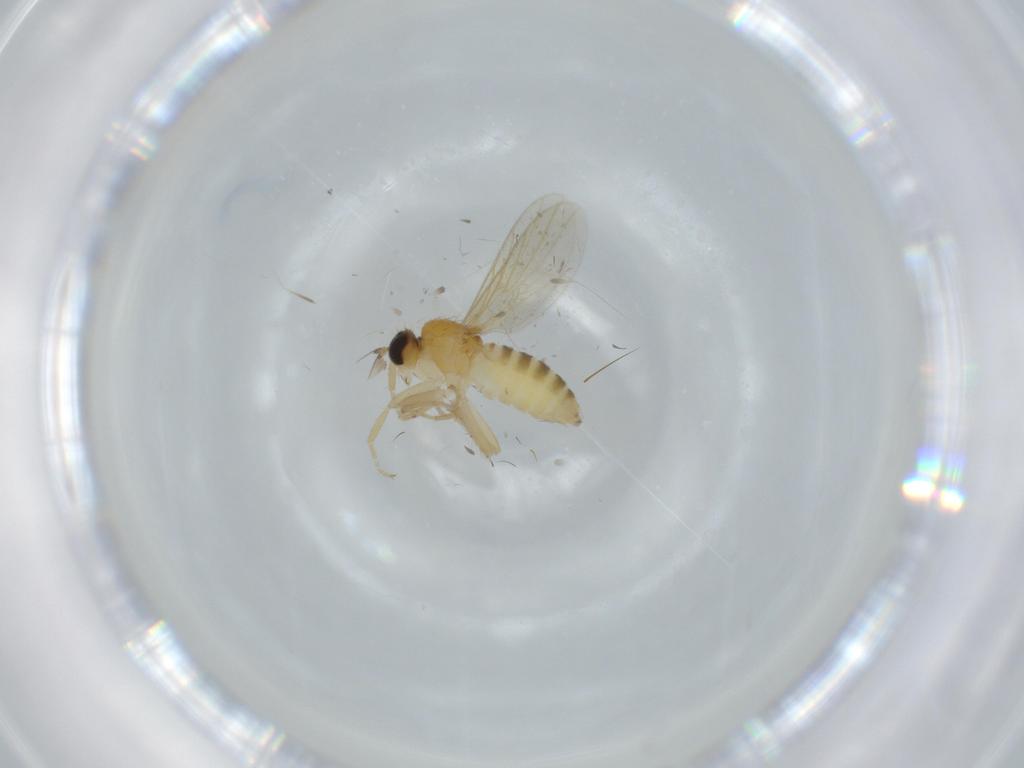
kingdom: Animalia
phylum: Arthropoda
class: Insecta
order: Diptera
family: Hybotidae
